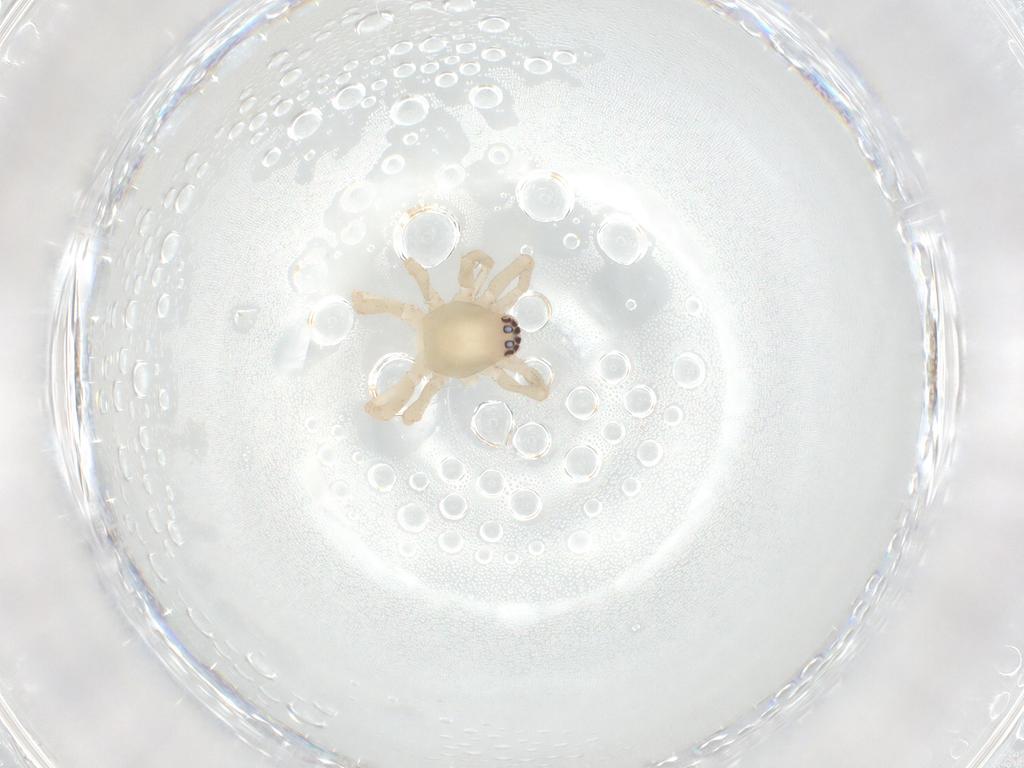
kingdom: Animalia
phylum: Arthropoda
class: Arachnida
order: Araneae
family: Clubionidae
